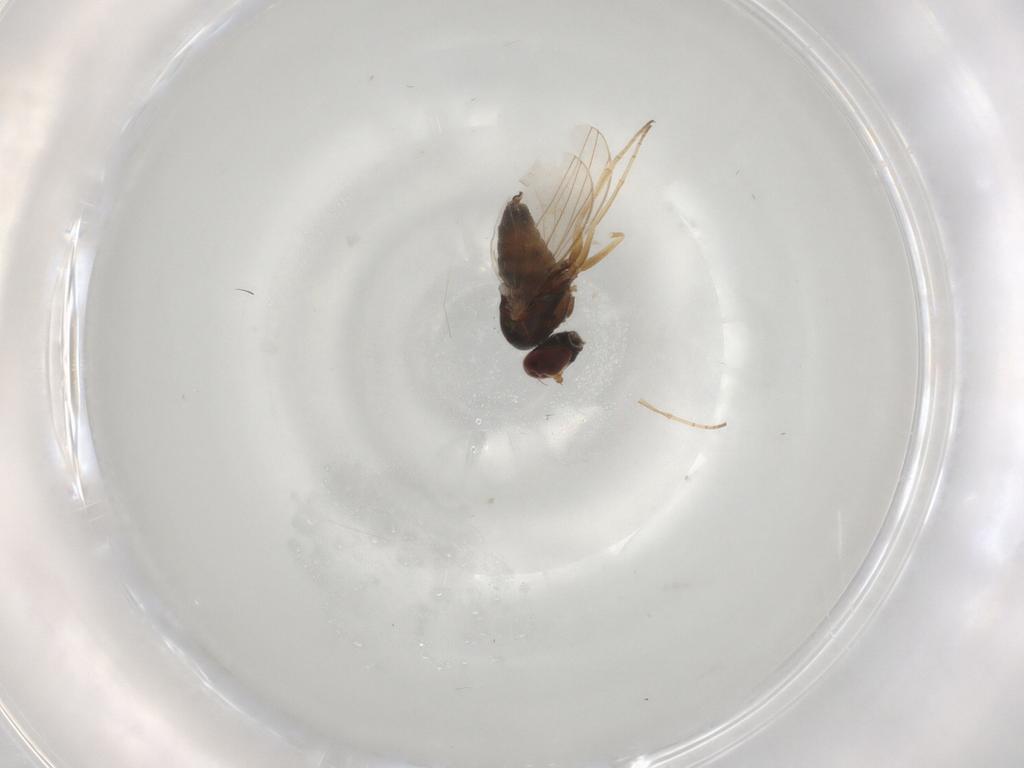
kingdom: Animalia
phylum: Arthropoda
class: Insecta
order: Diptera
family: Dolichopodidae
